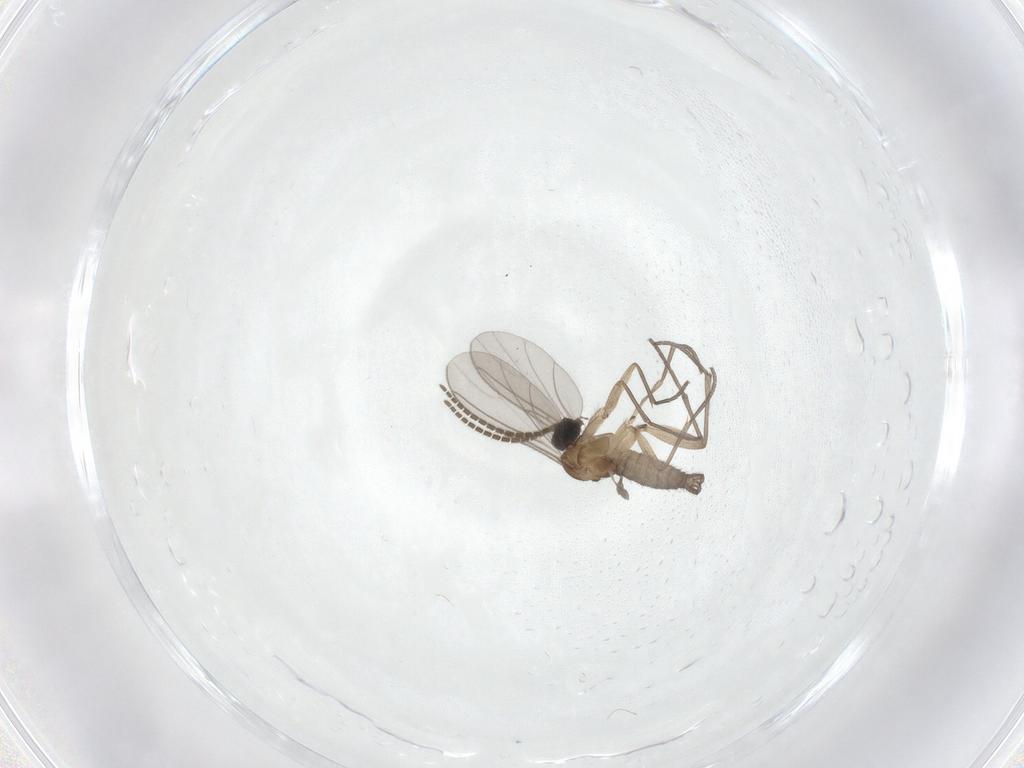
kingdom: Animalia
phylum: Arthropoda
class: Insecta
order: Diptera
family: Sciaridae
